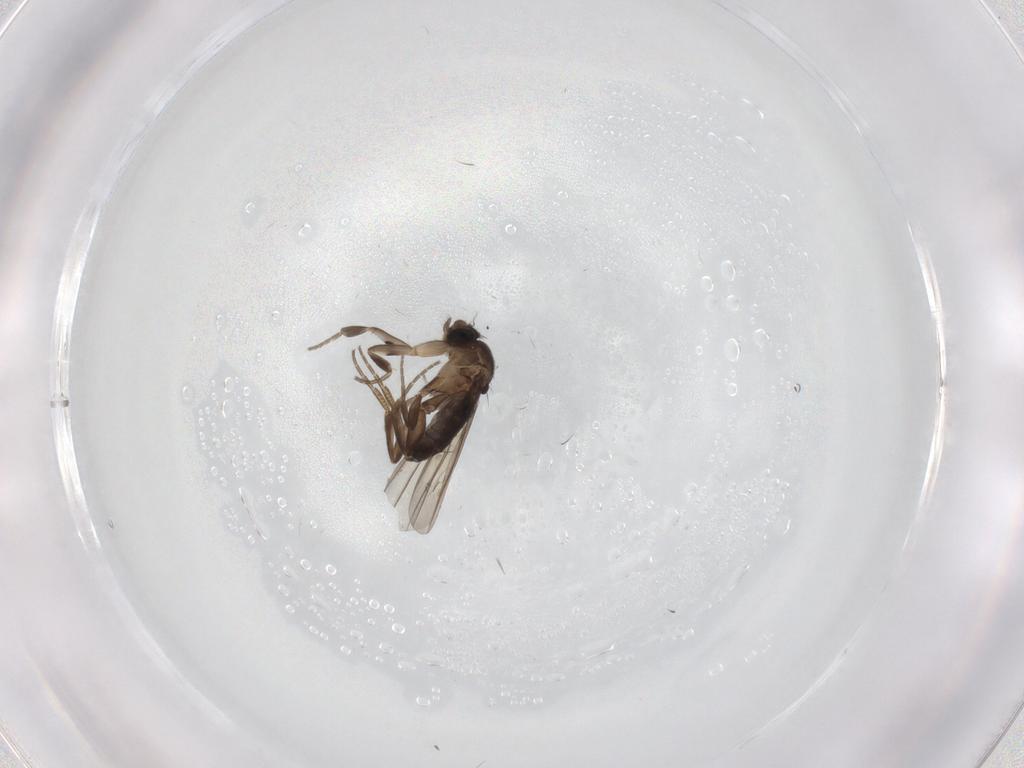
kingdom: Animalia
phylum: Arthropoda
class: Insecta
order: Diptera
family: Phoridae
